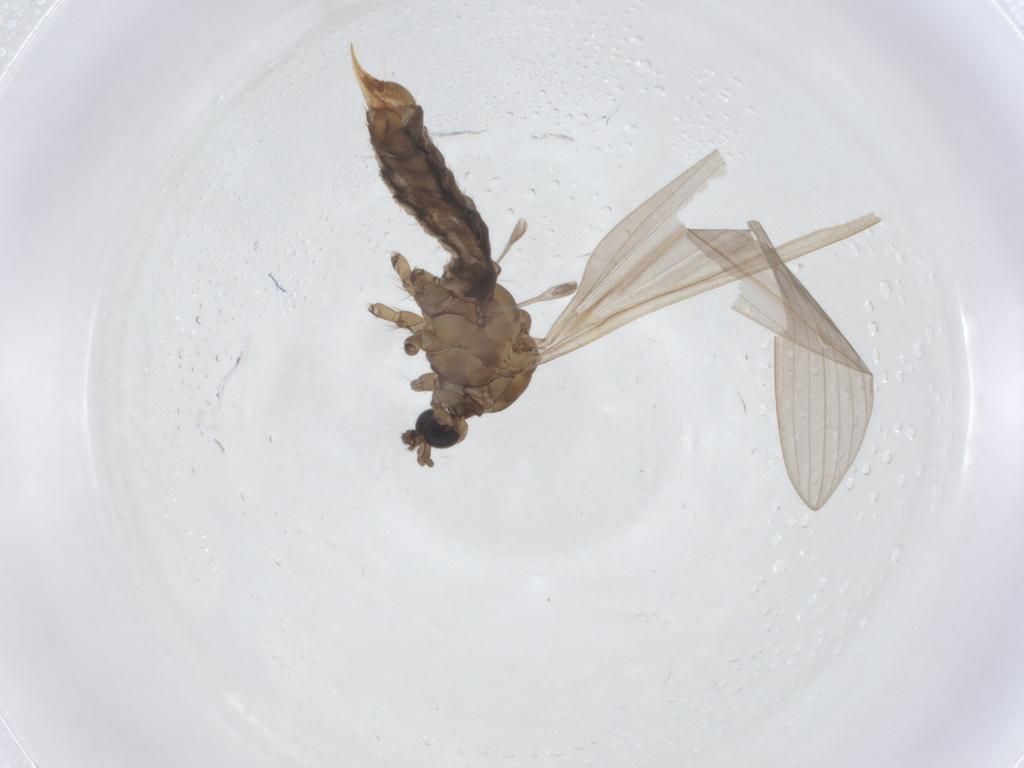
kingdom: Animalia
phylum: Arthropoda
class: Insecta
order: Diptera
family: Limoniidae
